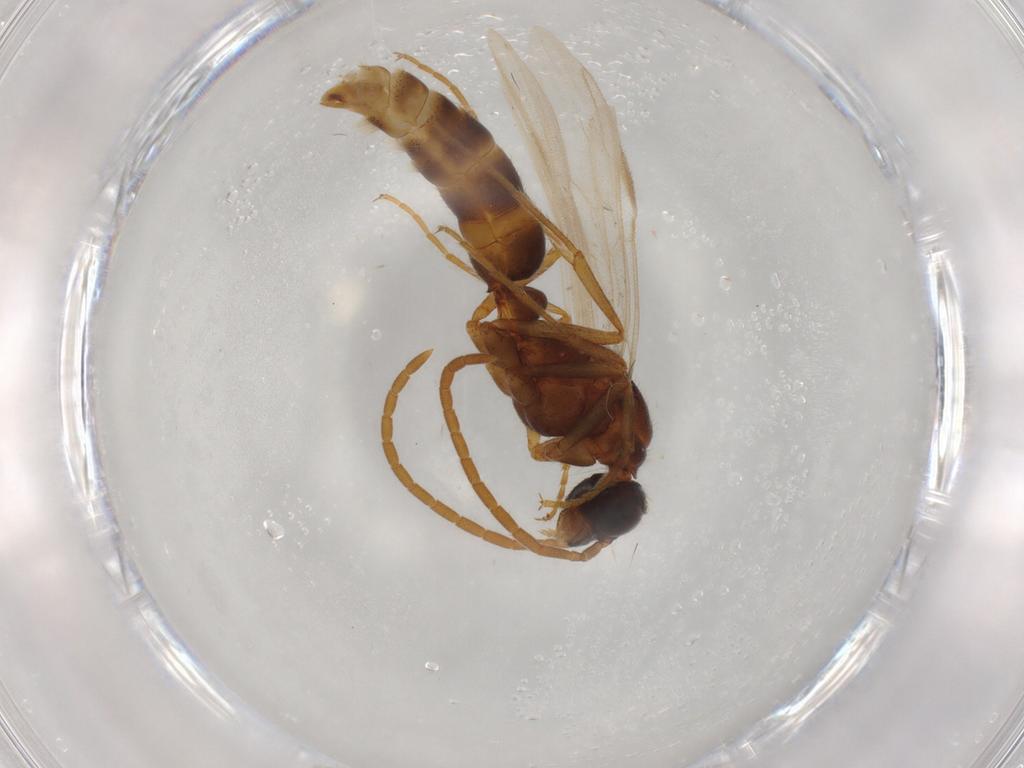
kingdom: Animalia
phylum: Arthropoda
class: Insecta
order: Hymenoptera
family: Formicidae
